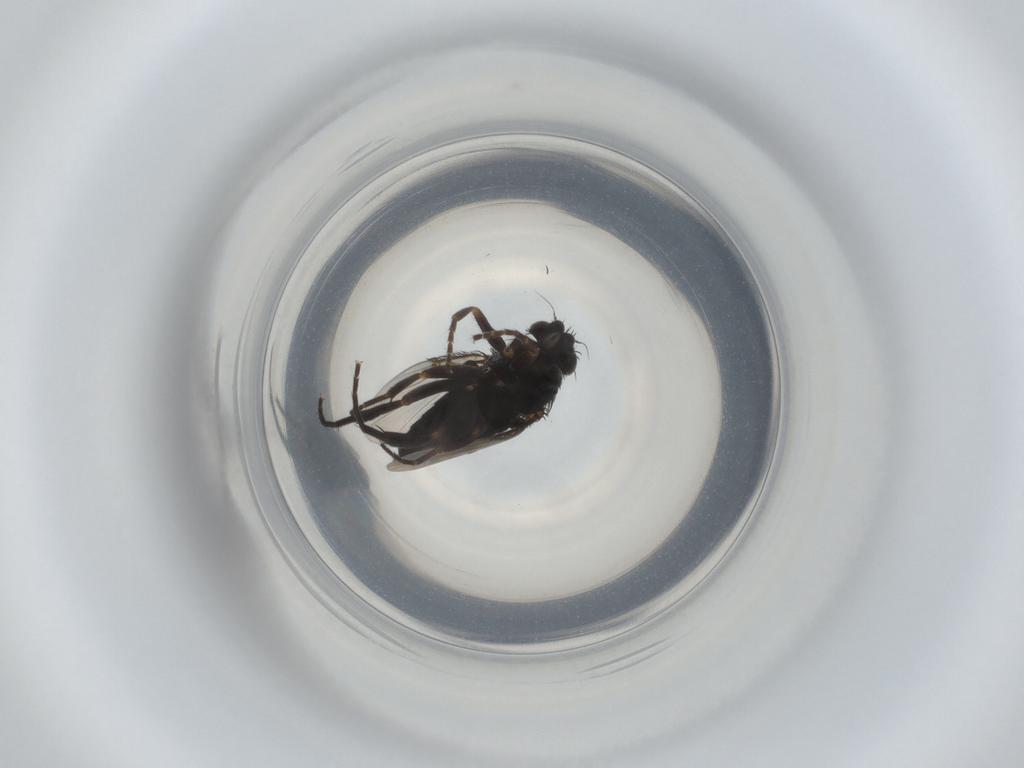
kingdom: Animalia
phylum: Arthropoda
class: Insecta
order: Diptera
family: Phoridae
